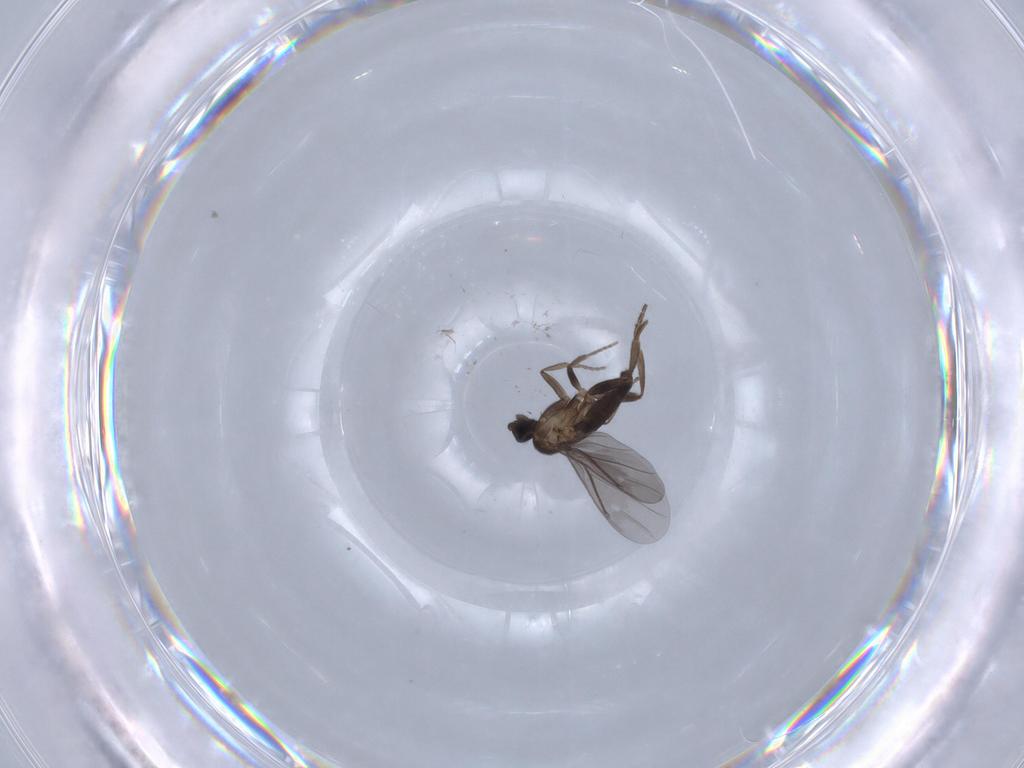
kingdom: Animalia
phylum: Arthropoda
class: Insecta
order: Diptera
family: Phoridae
